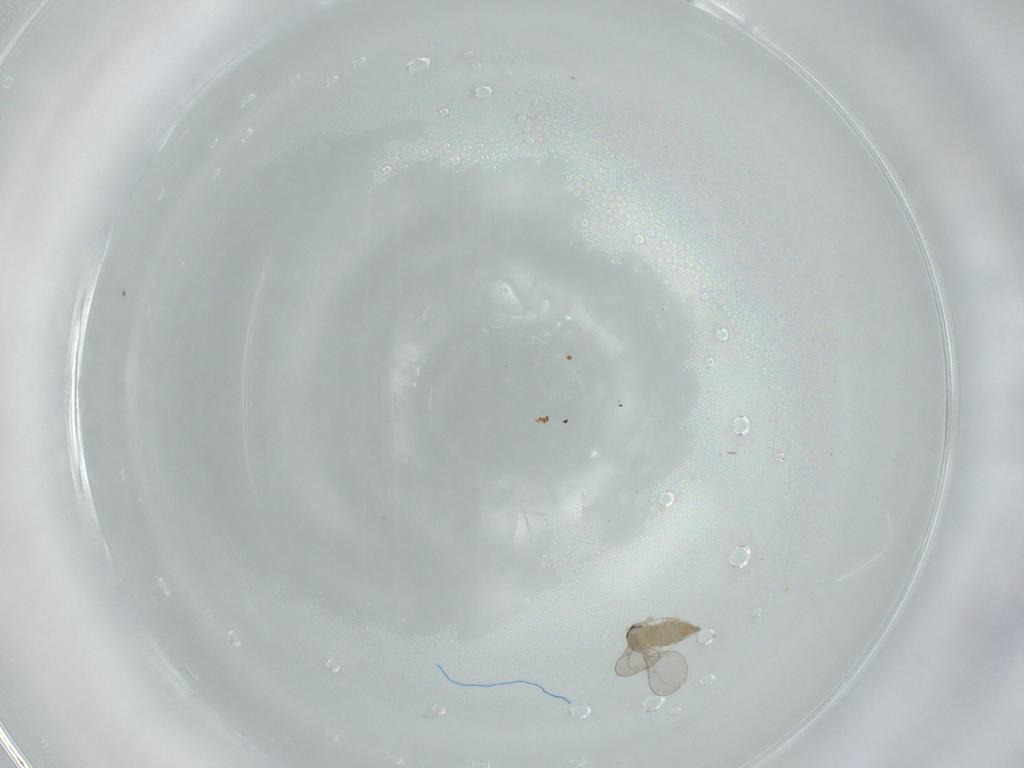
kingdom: Animalia
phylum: Arthropoda
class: Insecta
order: Diptera
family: Cecidomyiidae
